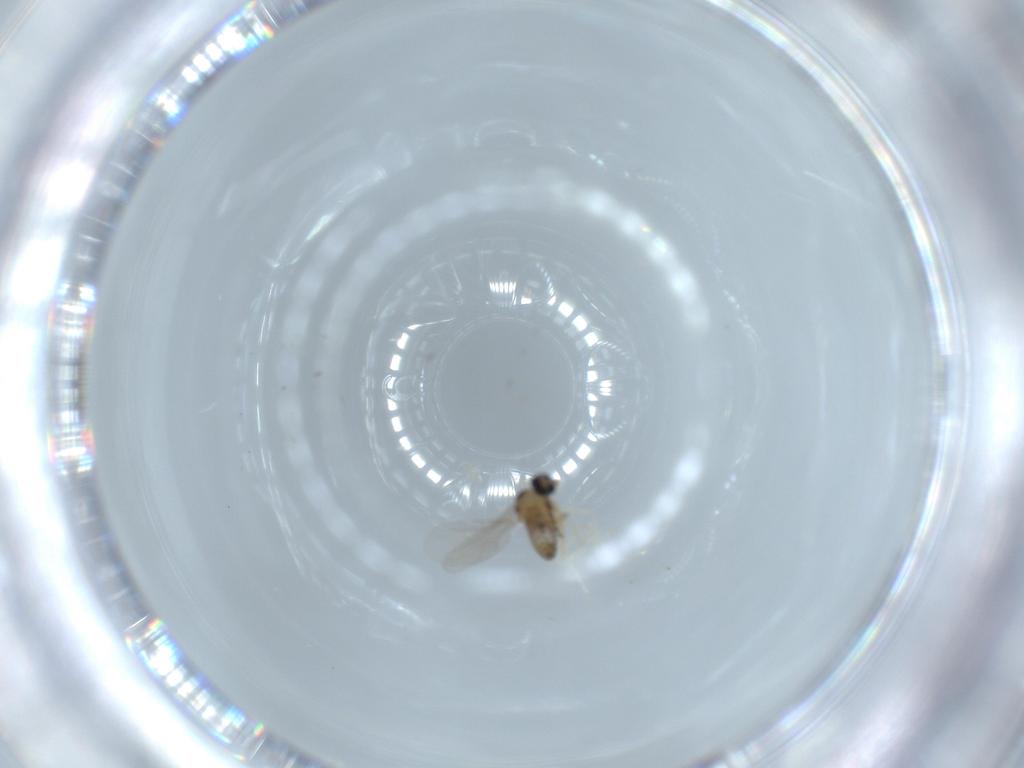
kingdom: Animalia
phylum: Arthropoda
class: Insecta
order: Diptera
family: Cecidomyiidae
